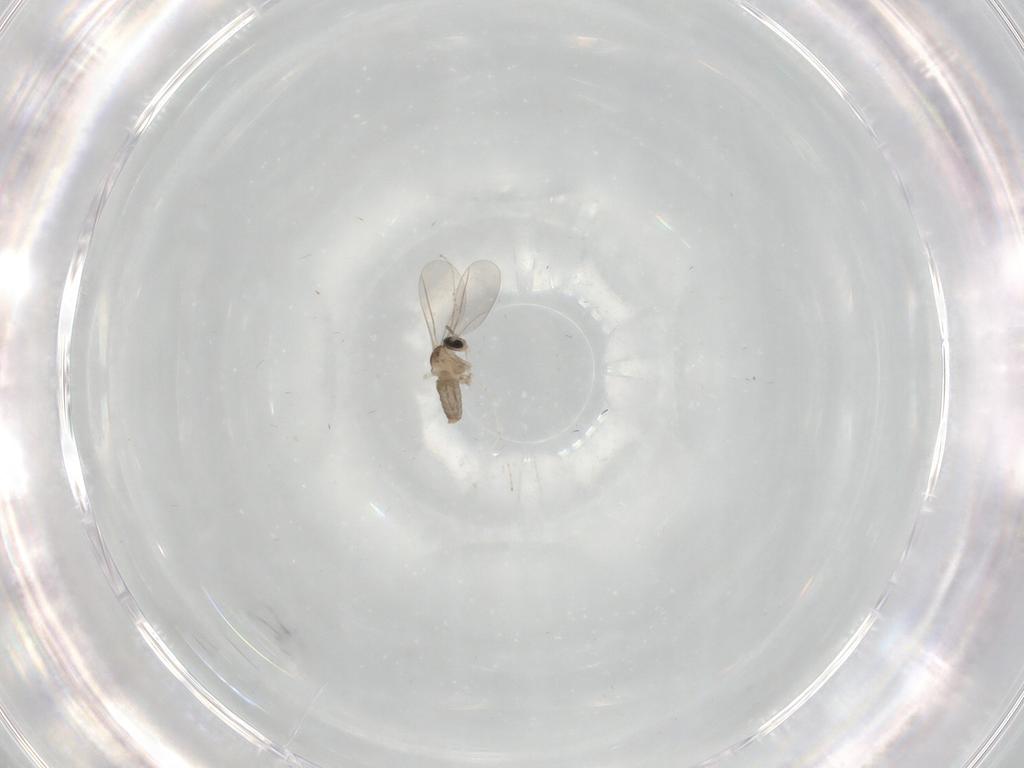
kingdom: Animalia
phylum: Arthropoda
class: Insecta
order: Diptera
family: Cecidomyiidae
